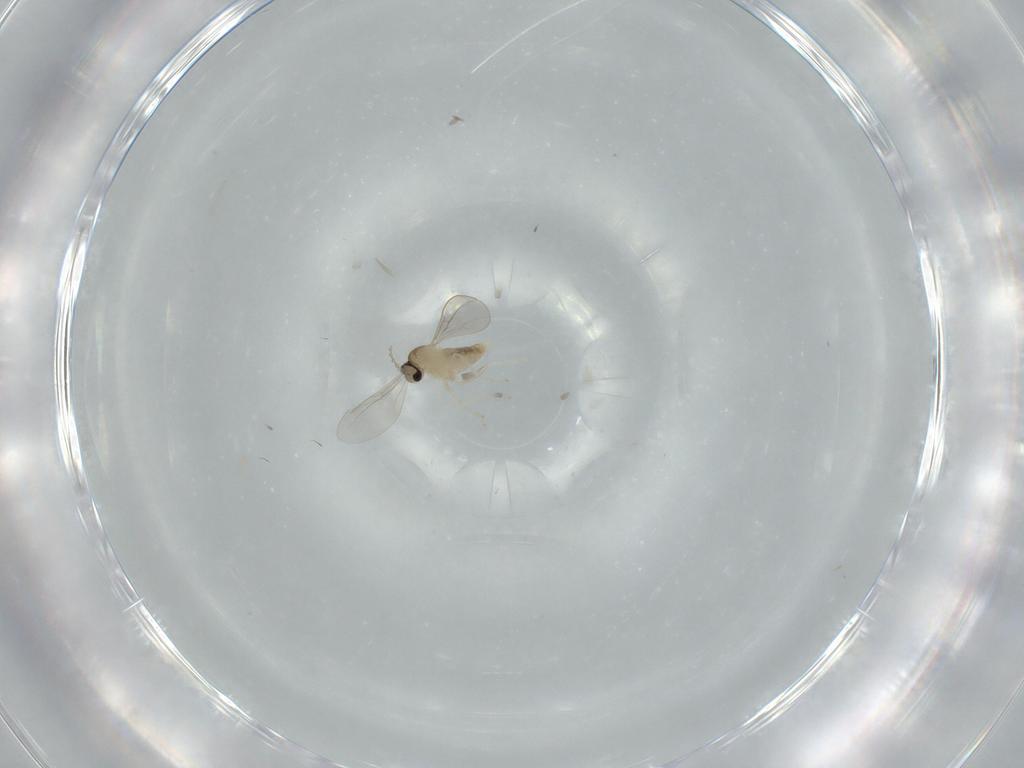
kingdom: Animalia
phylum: Arthropoda
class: Insecta
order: Diptera
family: Cecidomyiidae
